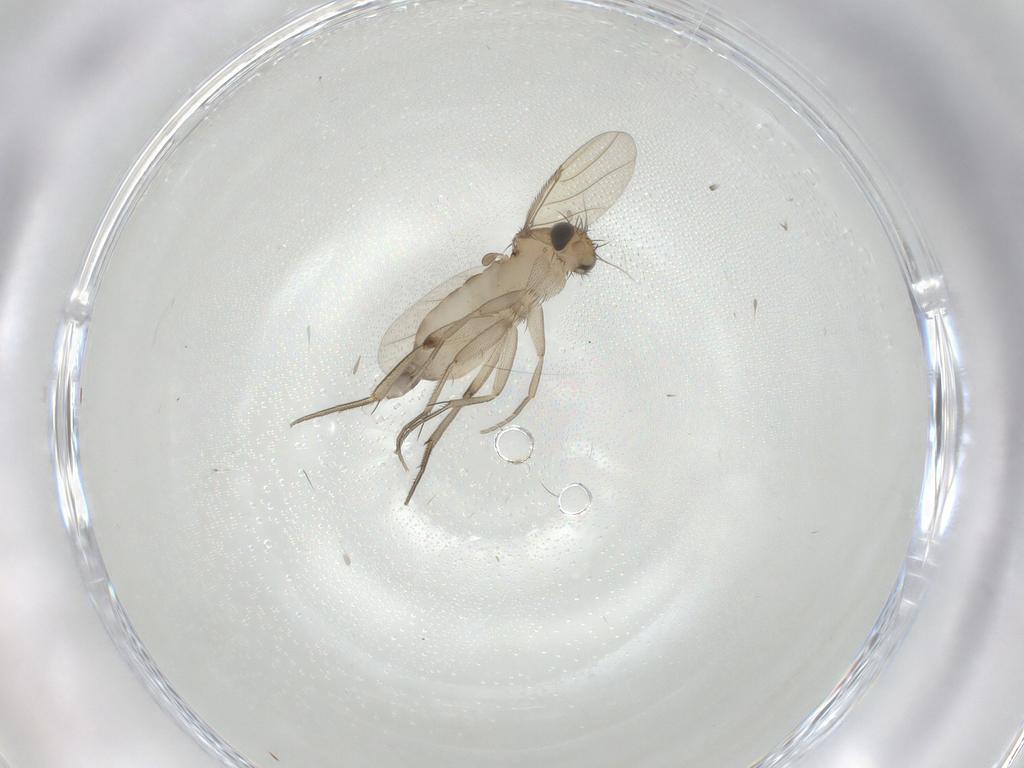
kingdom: Animalia
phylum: Arthropoda
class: Insecta
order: Diptera
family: Phoridae
